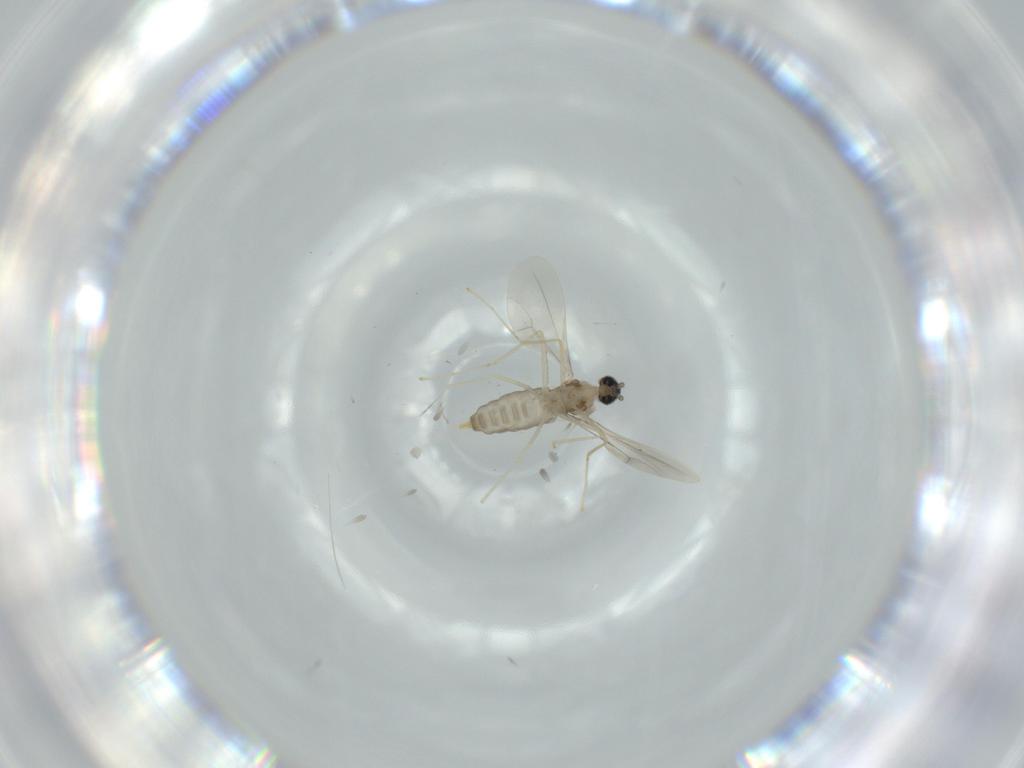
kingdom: Animalia
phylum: Arthropoda
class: Insecta
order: Diptera
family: Cecidomyiidae
